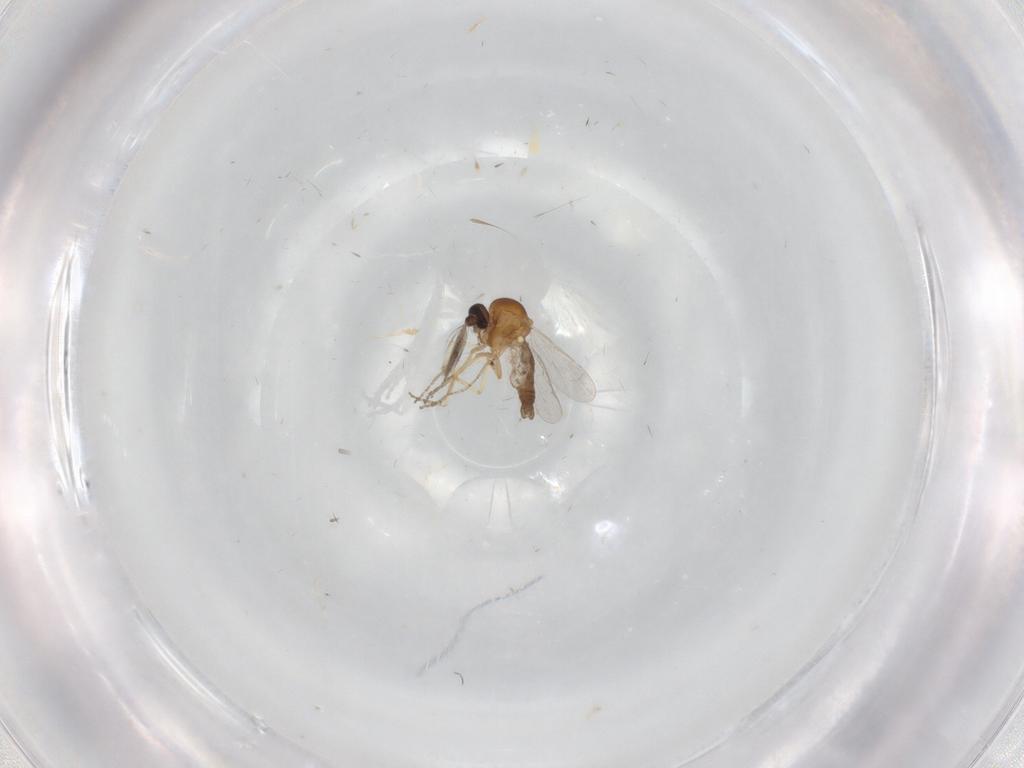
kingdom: Animalia
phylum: Arthropoda
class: Insecta
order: Diptera
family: Ceratopogonidae
